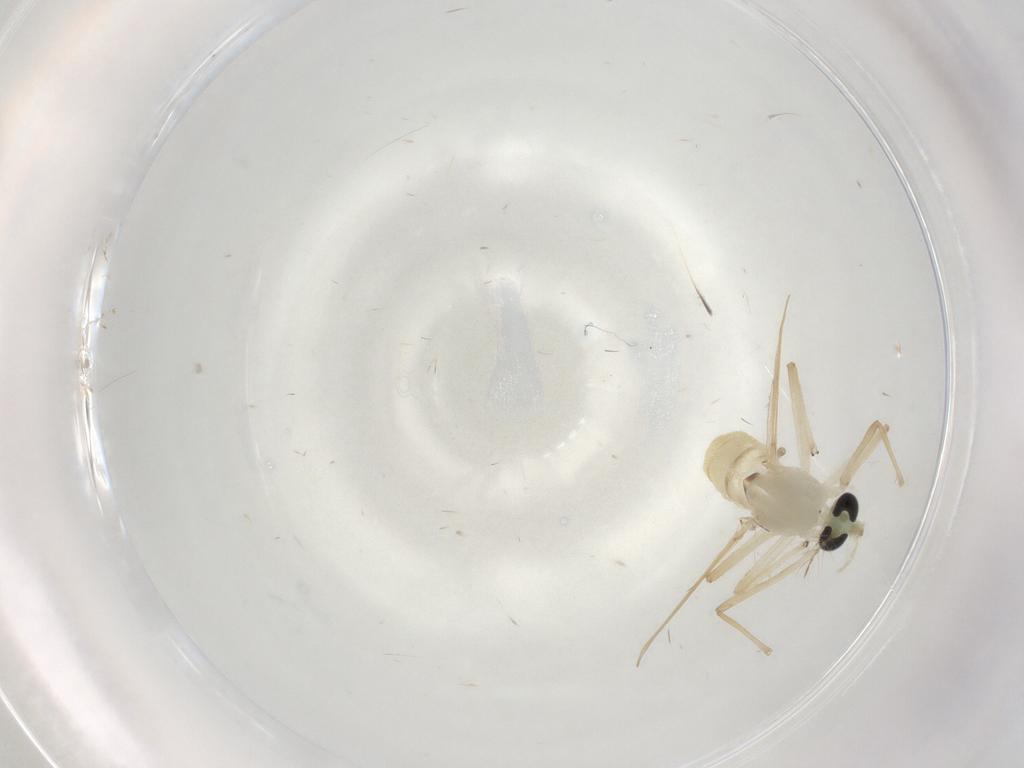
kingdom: Animalia
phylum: Arthropoda
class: Insecta
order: Diptera
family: Chironomidae
